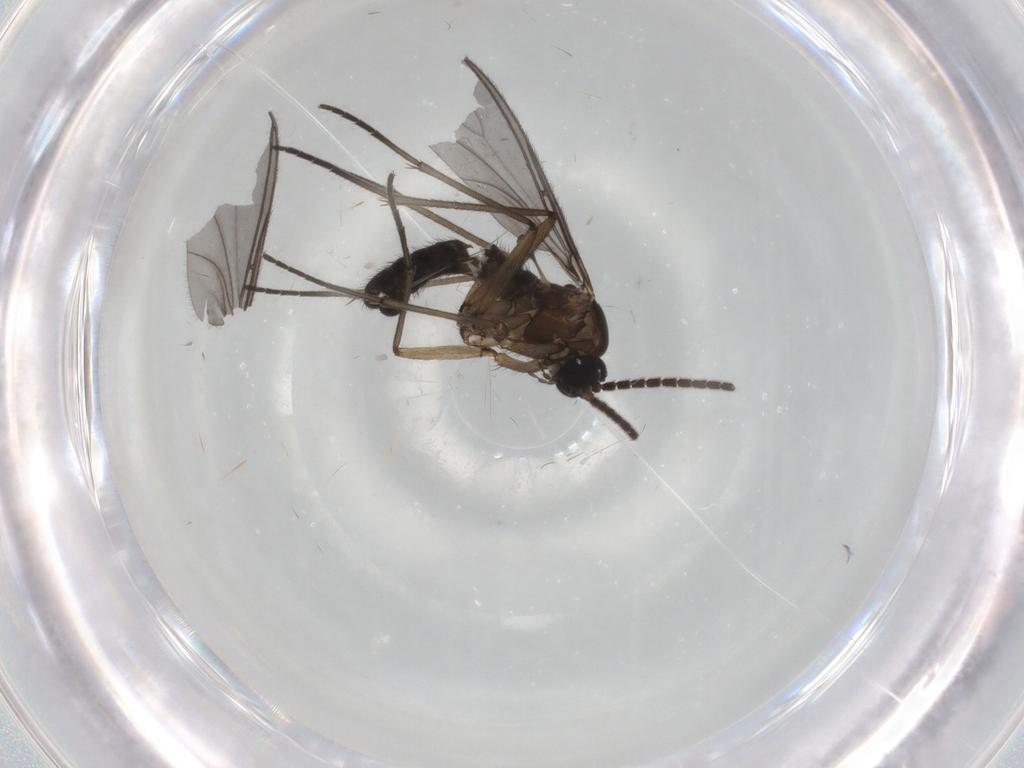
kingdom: Animalia
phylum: Arthropoda
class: Insecta
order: Diptera
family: Sciaridae
